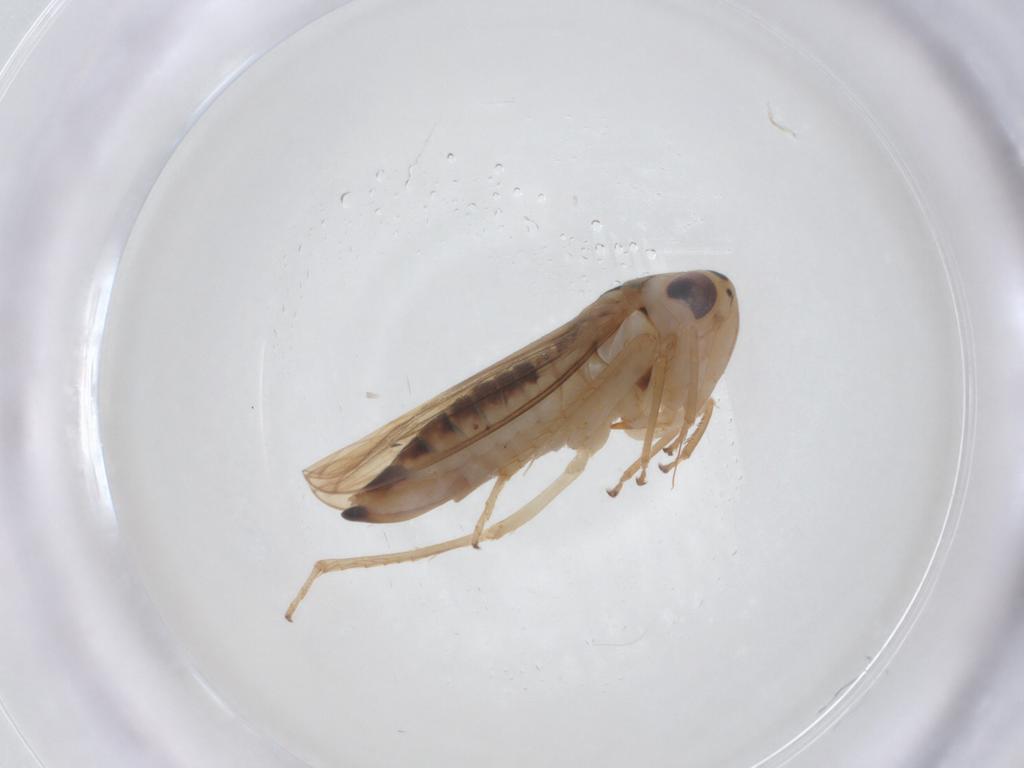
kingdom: Animalia
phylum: Arthropoda
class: Insecta
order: Hemiptera
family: Cicadellidae
